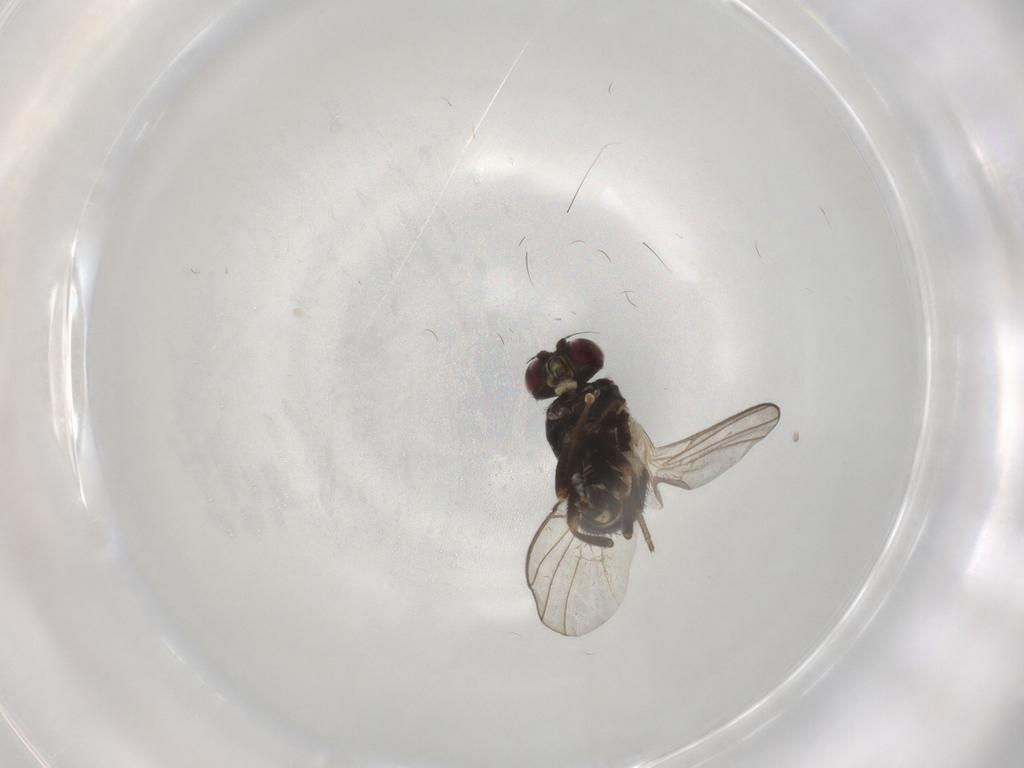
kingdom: Animalia
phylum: Arthropoda
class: Insecta
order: Diptera
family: Agromyzidae
